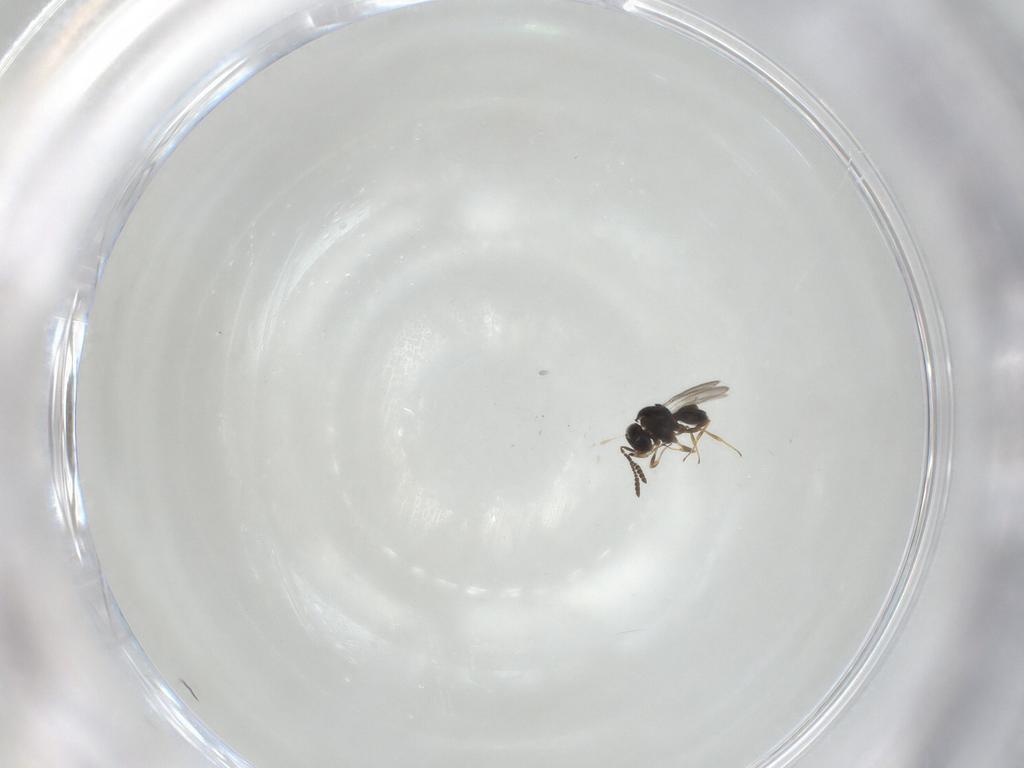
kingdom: Animalia
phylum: Arthropoda
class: Insecta
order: Hymenoptera
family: Scelionidae
